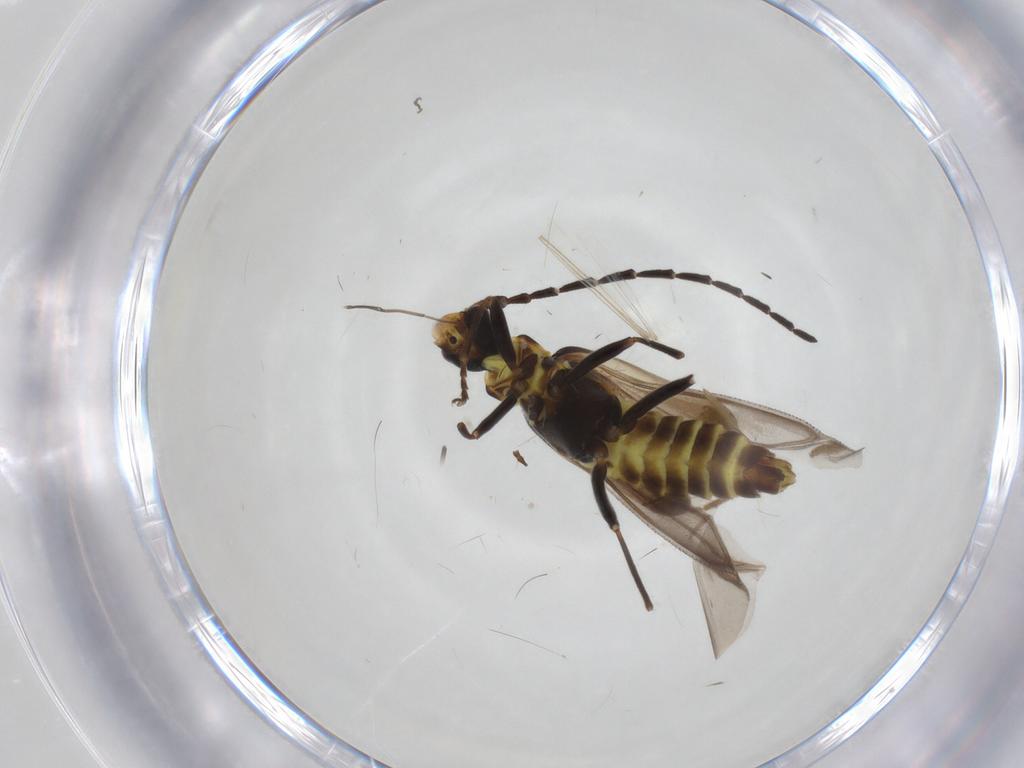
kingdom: Animalia
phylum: Arthropoda
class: Insecta
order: Coleoptera
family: Cantharidae
